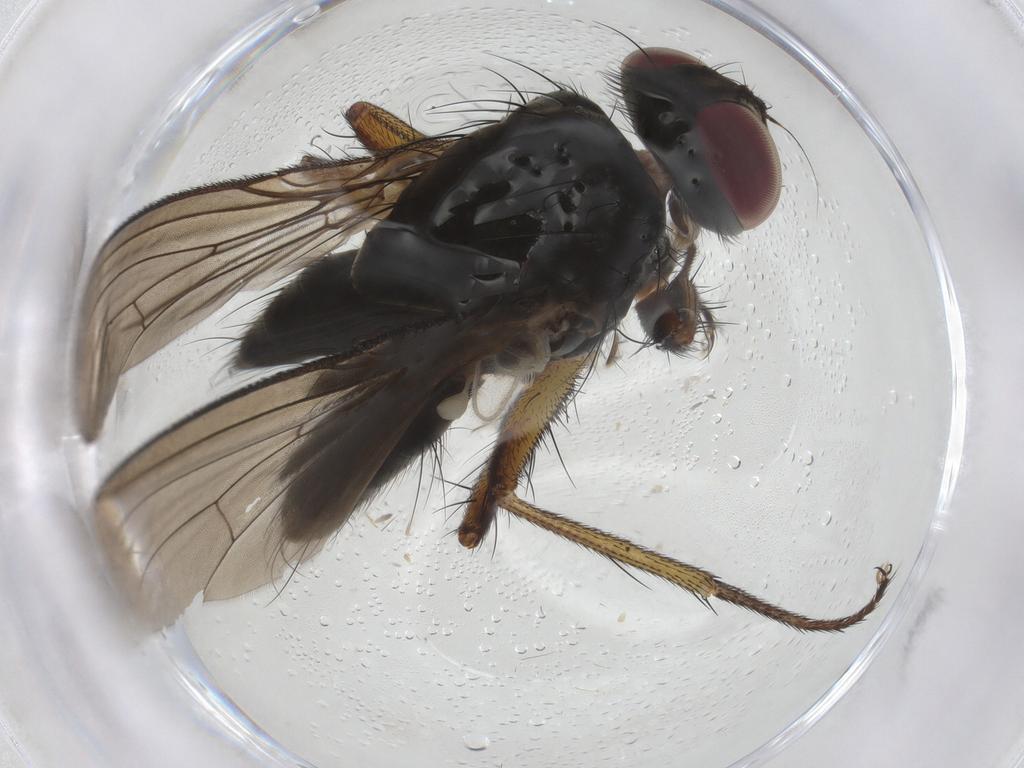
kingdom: Animalia
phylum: Arthropoda
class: Insecta
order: Diptera
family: Muscidae
